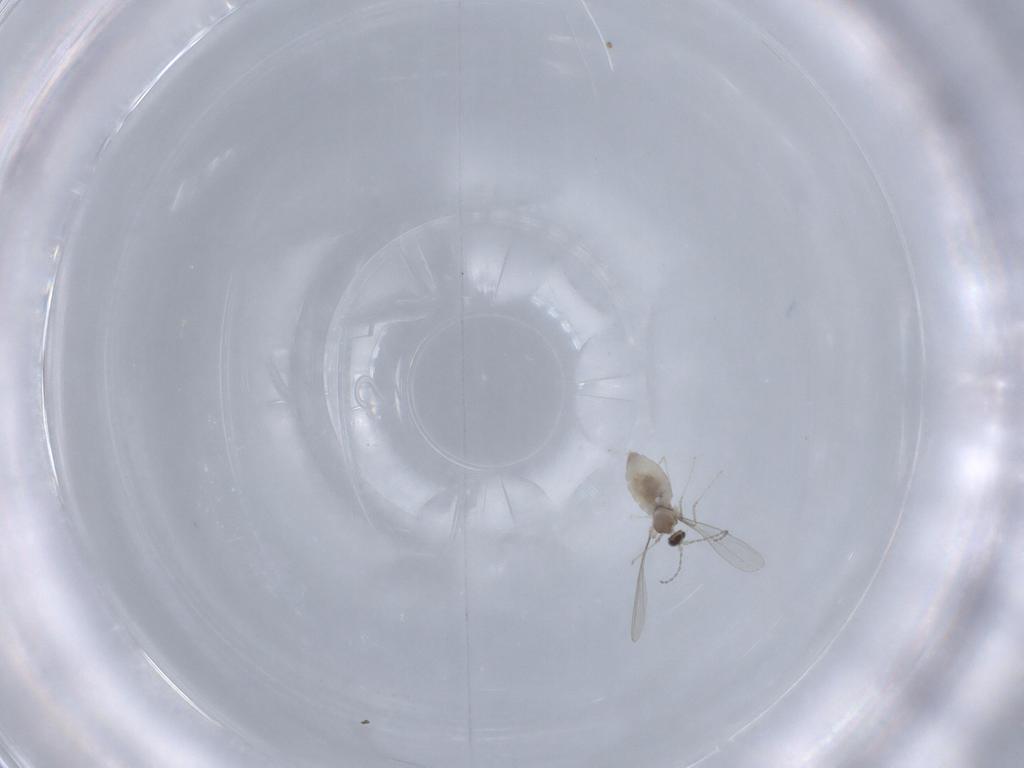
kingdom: Animalia
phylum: Arthropoda
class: Insecta
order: Diptera
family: Cecidomyiidae
